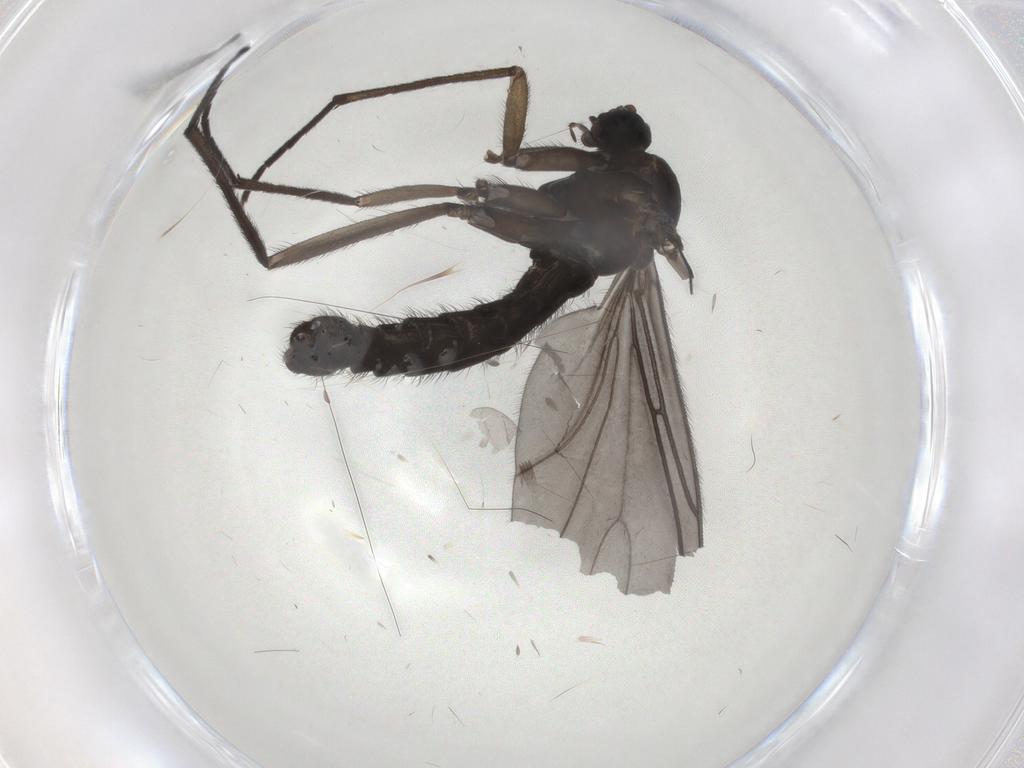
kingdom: Animalia
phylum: Arthropoda
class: Insecta
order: Diptera
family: Sciaridae
